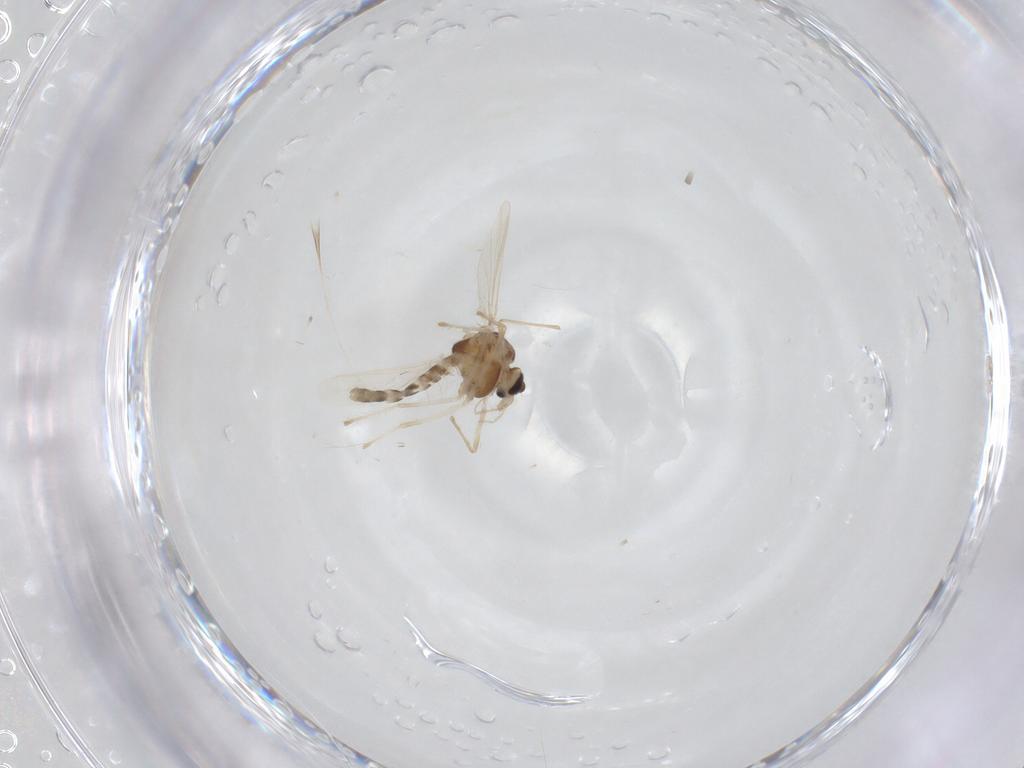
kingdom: Animalia
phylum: Arthropoda
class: Insecta
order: Diptera
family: Chironomidae
